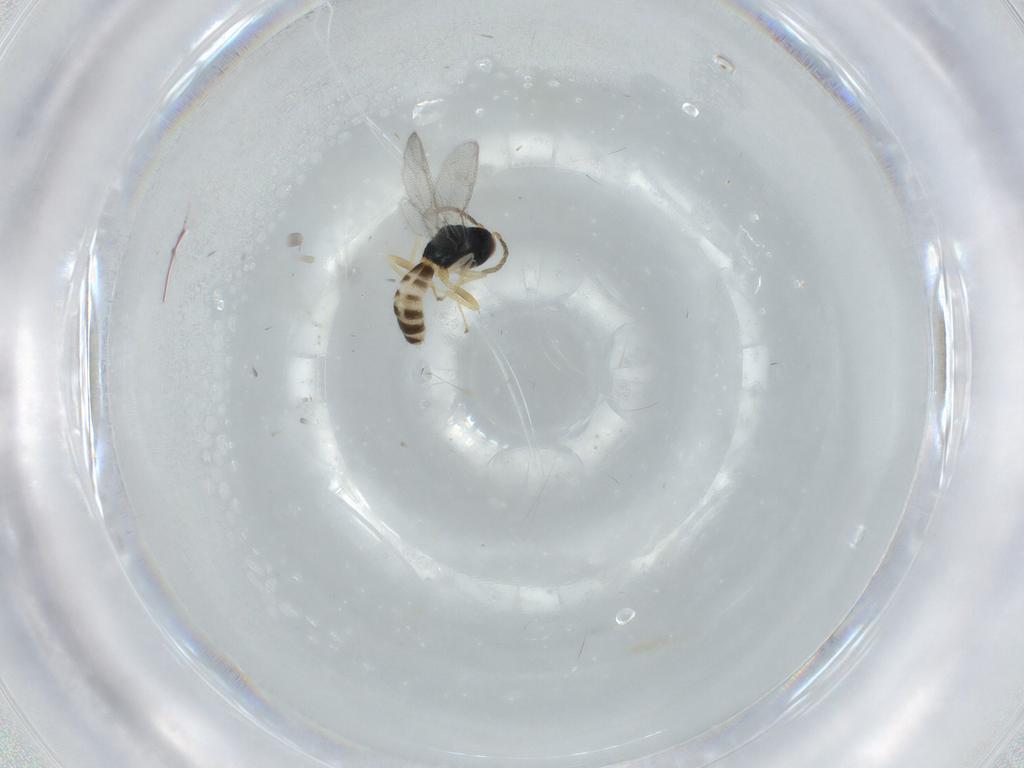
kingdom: Animalia
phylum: Arthropoda
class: Insecta
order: Hymenoptera
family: Pteromalidae
